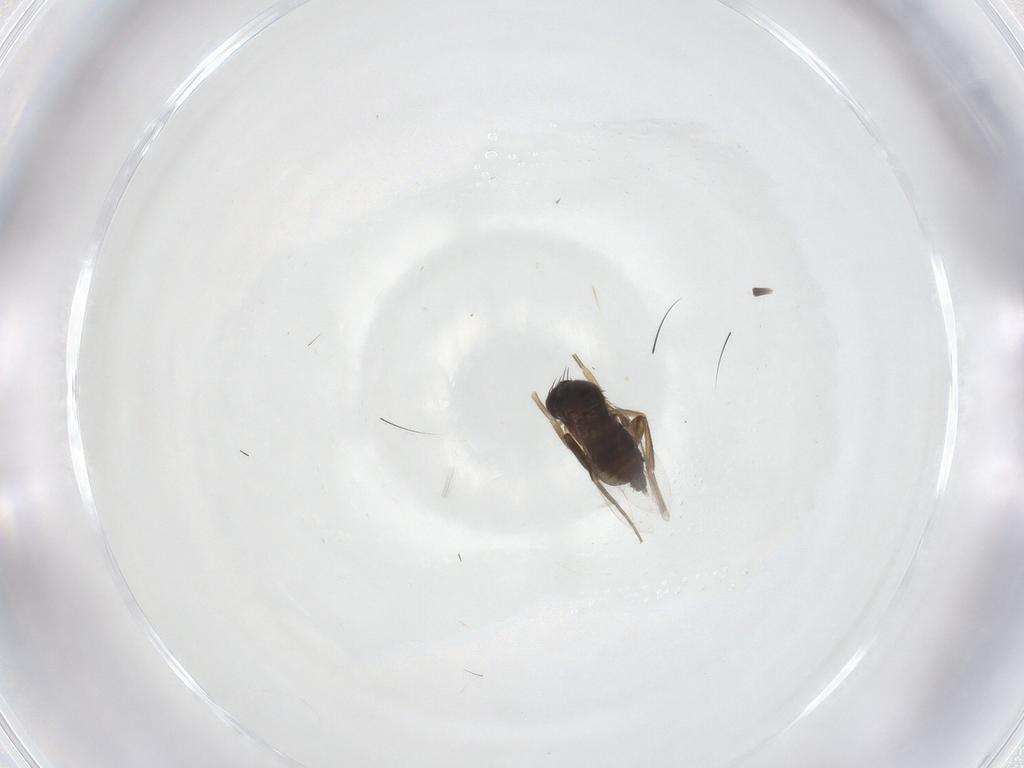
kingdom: Animalia
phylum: Arthropoda
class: Insecta
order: Diptera
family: Phoridae
